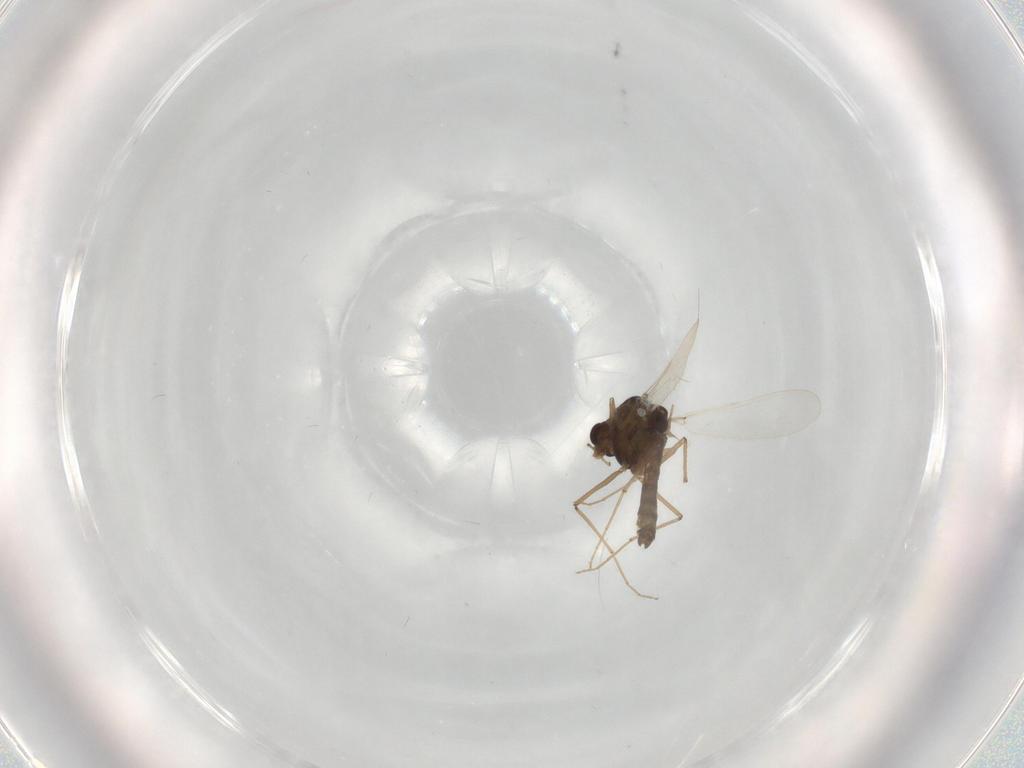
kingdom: Animalia
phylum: Arthropoda
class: Insecta
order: Diptera
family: Chironomidae
